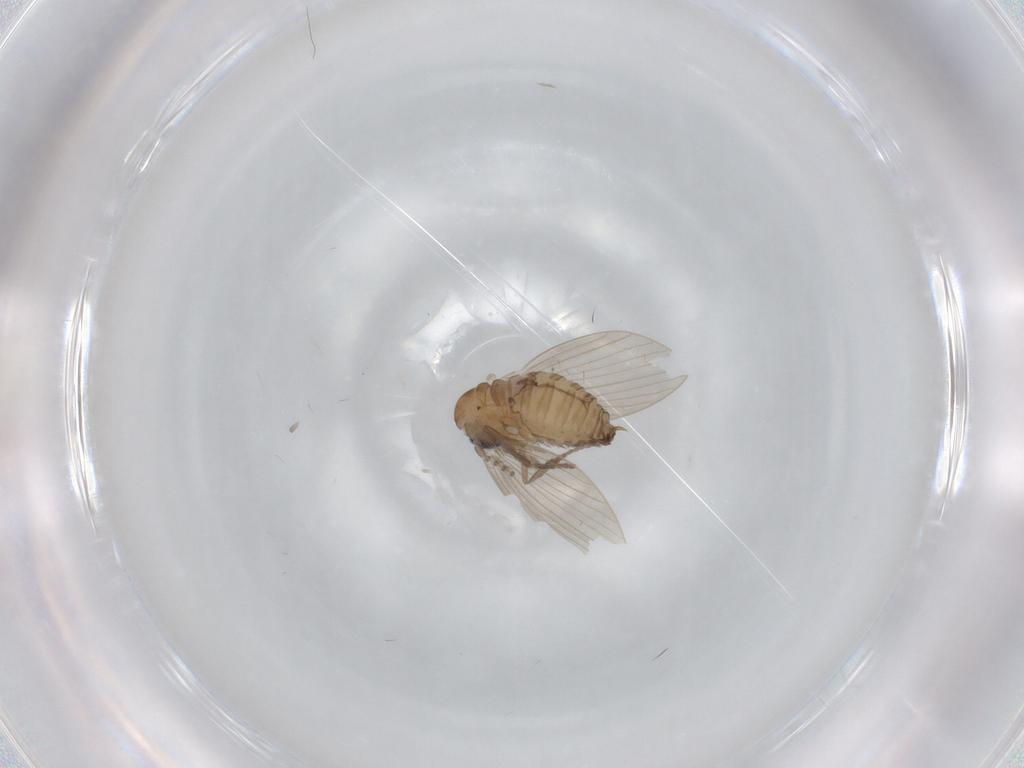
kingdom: Animalia
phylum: Arthropoda
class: Insecta
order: Diptera
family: Psychodidae
